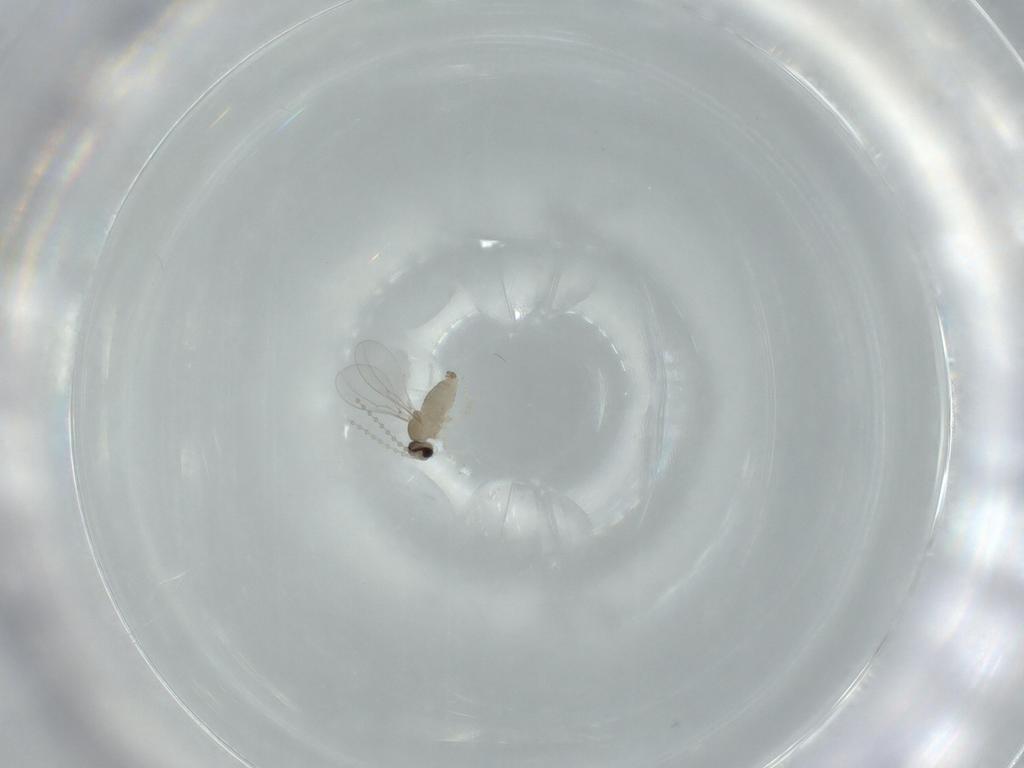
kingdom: Animalia
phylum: Arthropoda
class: Insecta
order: Diptera
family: Cecidomyiidae
